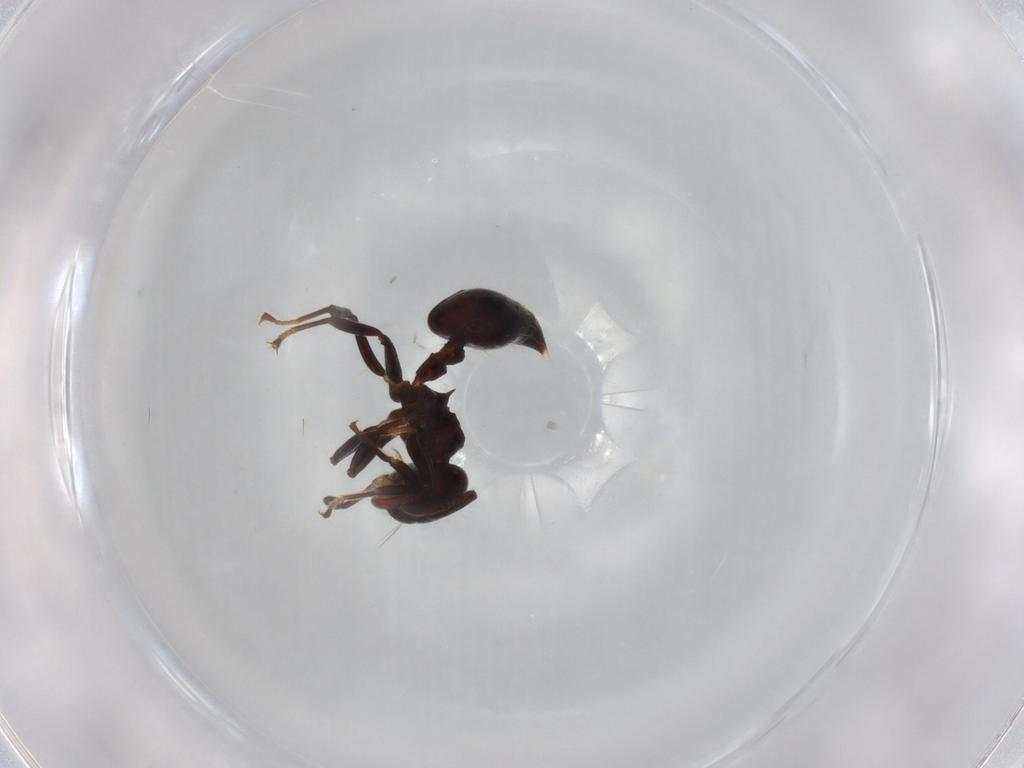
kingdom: Animalia
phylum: Arthropoda
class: Insecta
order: Hymenoptera
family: Formicidae
